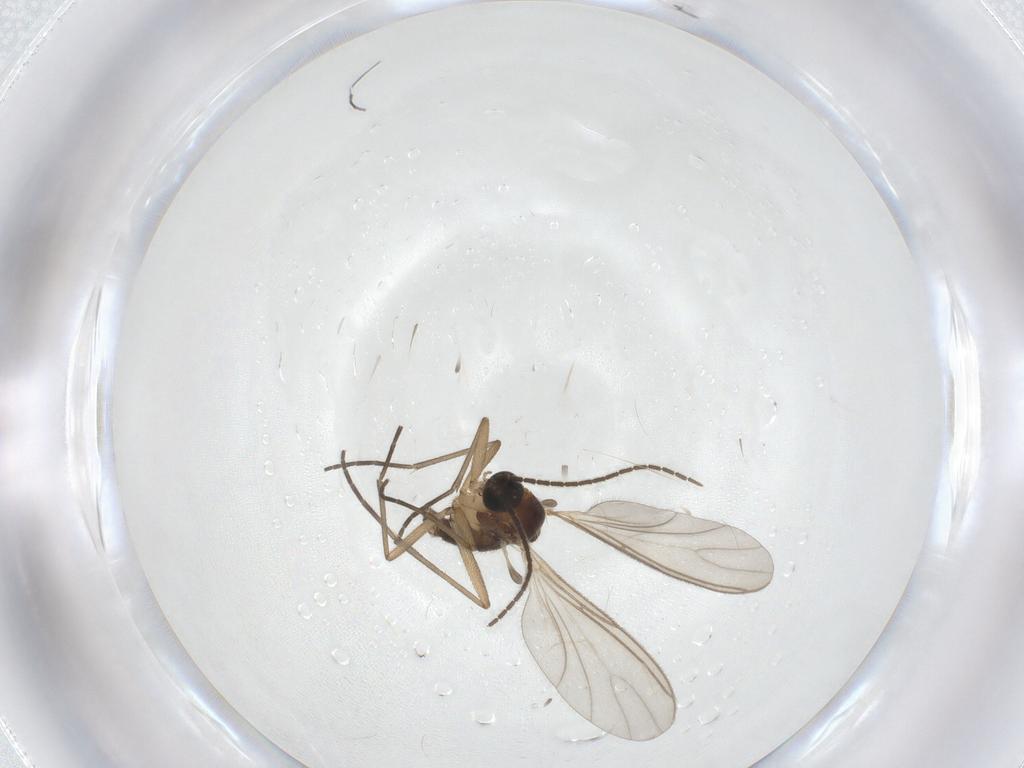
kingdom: Animalia
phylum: Arthropoda
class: Insecta
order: Diptera
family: Sciaridae
